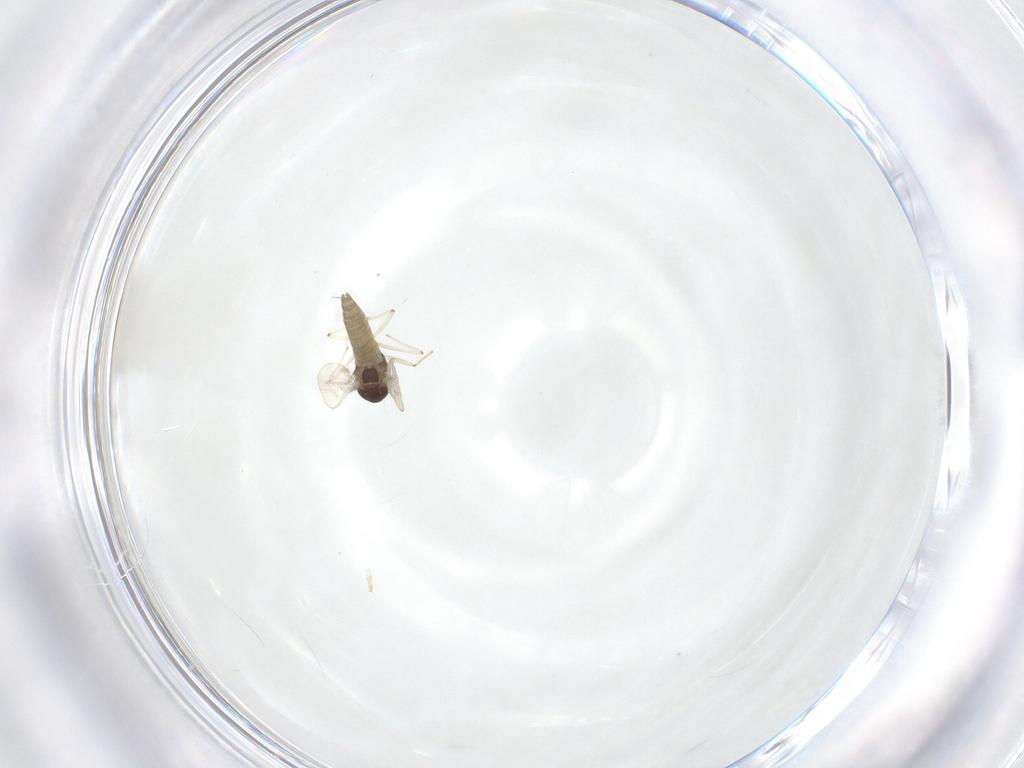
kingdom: Animalia
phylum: Arthropoda
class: Insecta
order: Diptera
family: Chironomidae
